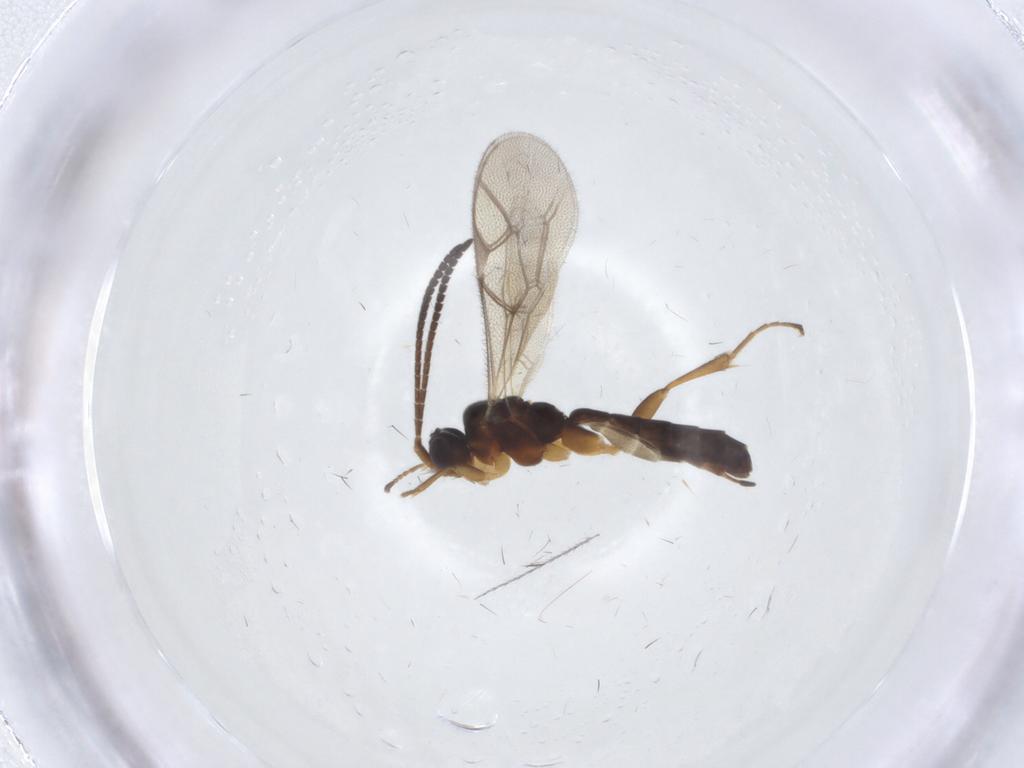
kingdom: Animalia
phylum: Arthropoda
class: Insecta
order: Hymenoptera
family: Ichneumonidae
